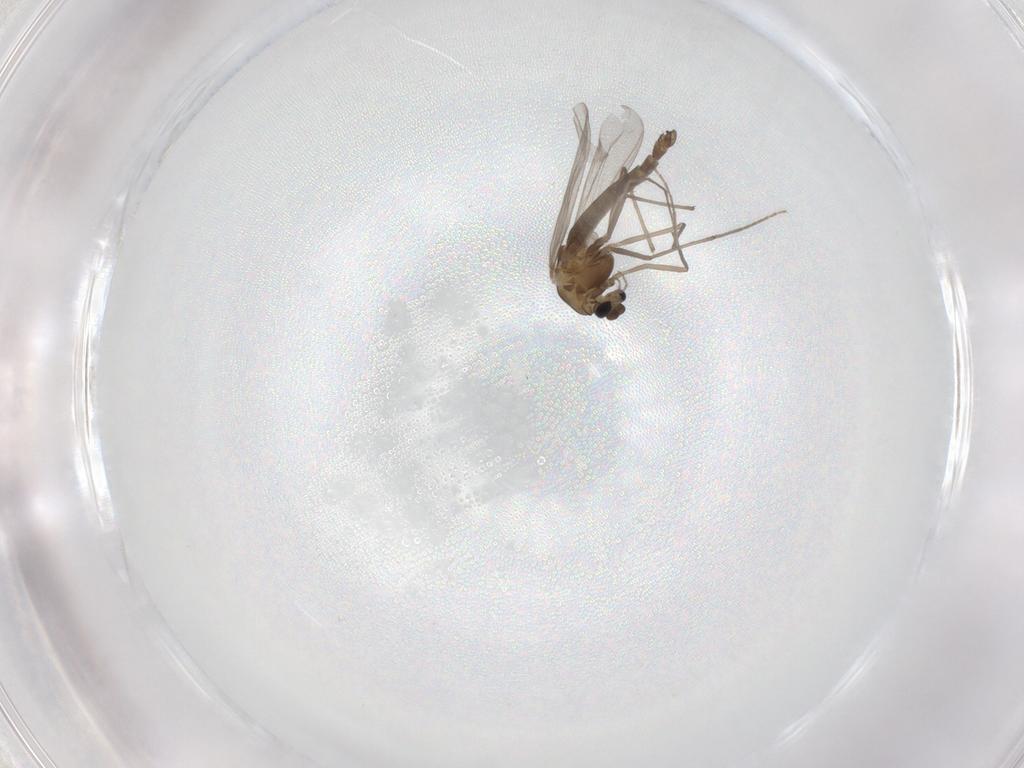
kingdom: Animalia
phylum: Arthropoda
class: Insecta
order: Diptera
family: Chironomidae
